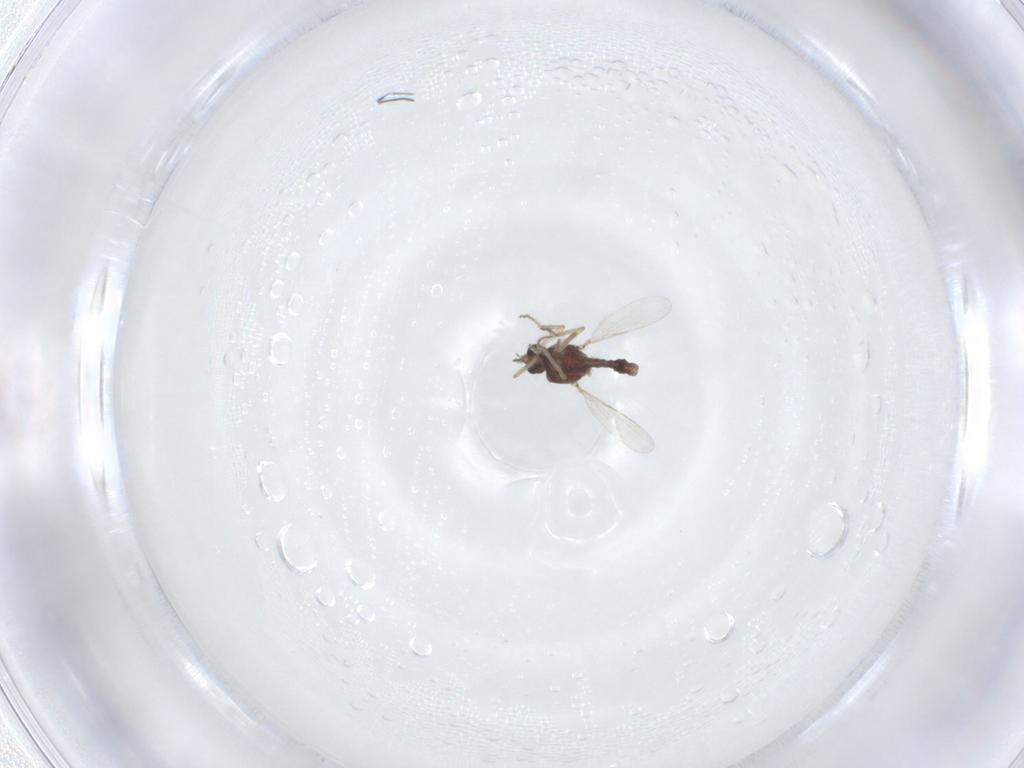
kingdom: Animalia
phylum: Arthropoda
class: Insecta
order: Diptera
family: Ceratopogonidae
